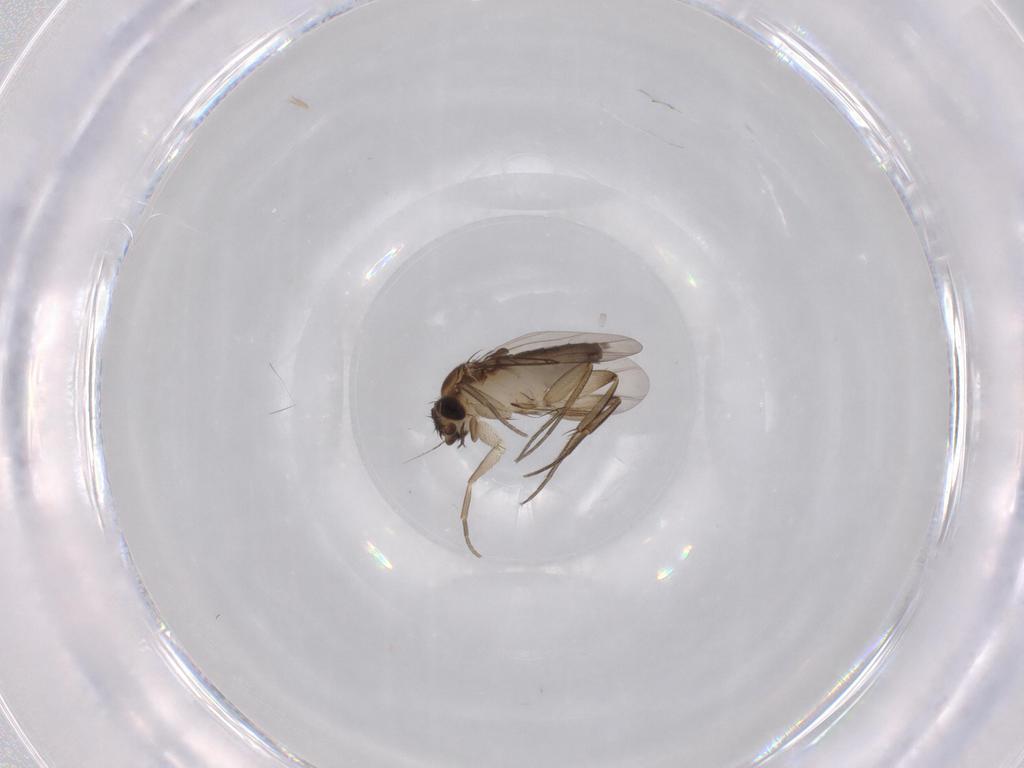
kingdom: Animalia
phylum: Arthropoda
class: Insecta
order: Diptera
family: Phoridae
